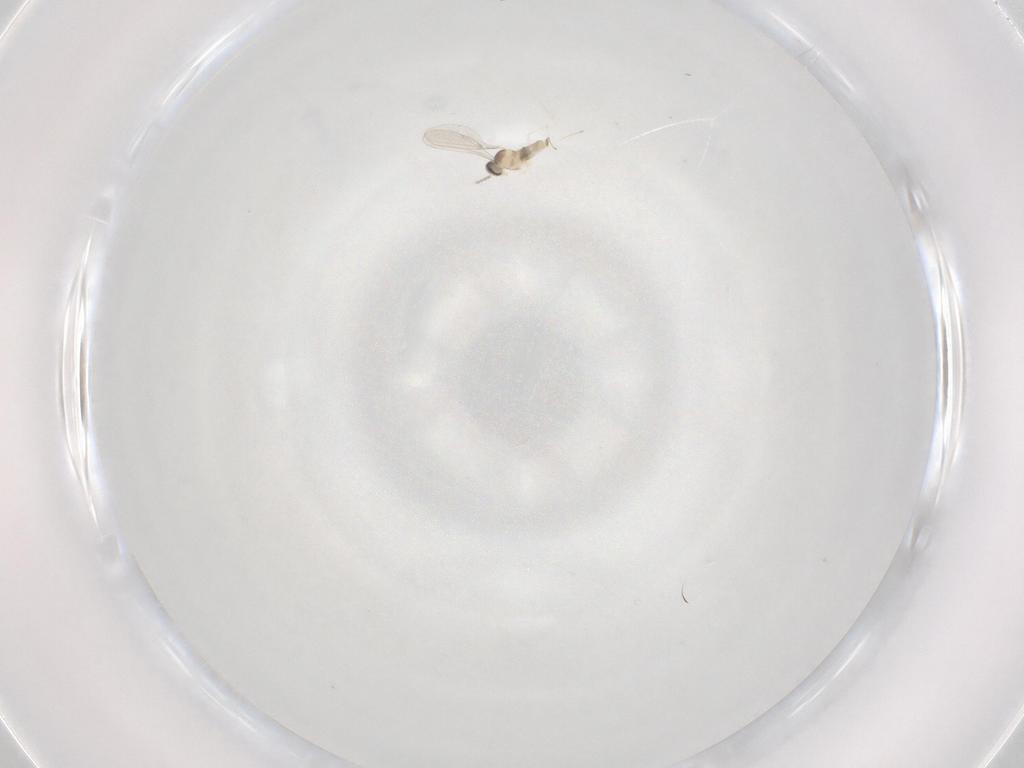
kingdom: Animalia
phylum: Arthropoda
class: Insecta
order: Diptera
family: Cecidomyiidae
